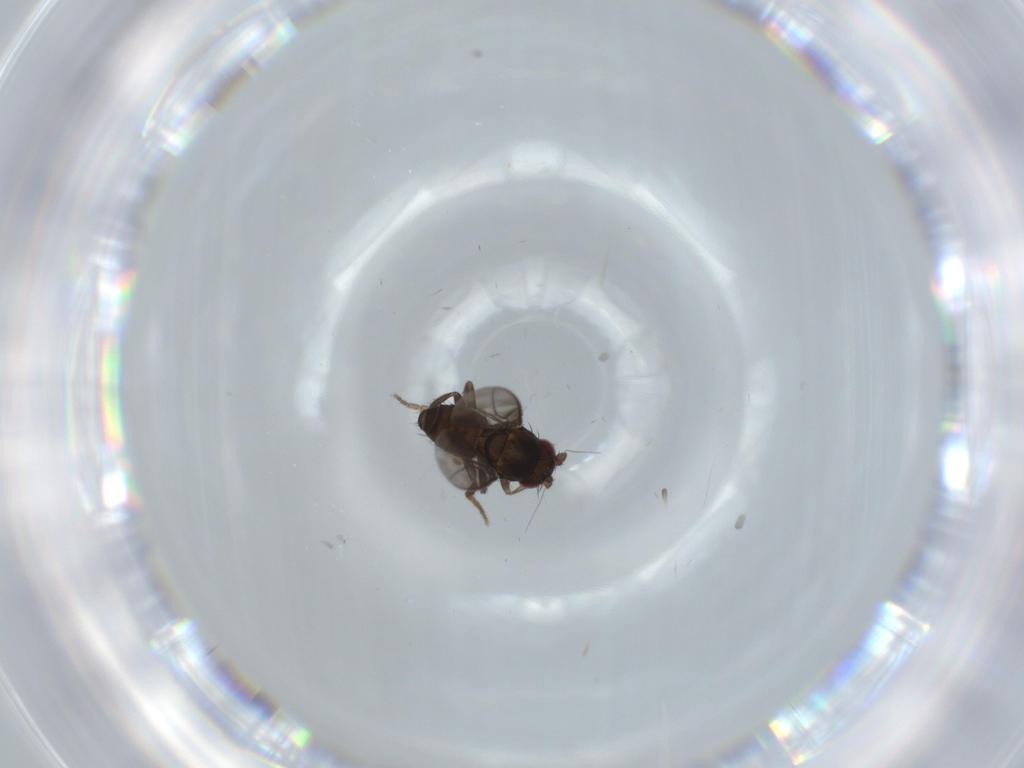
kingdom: Animalia
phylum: Arthropoda
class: Insecta
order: Diptera
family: Sphaeroceridae
